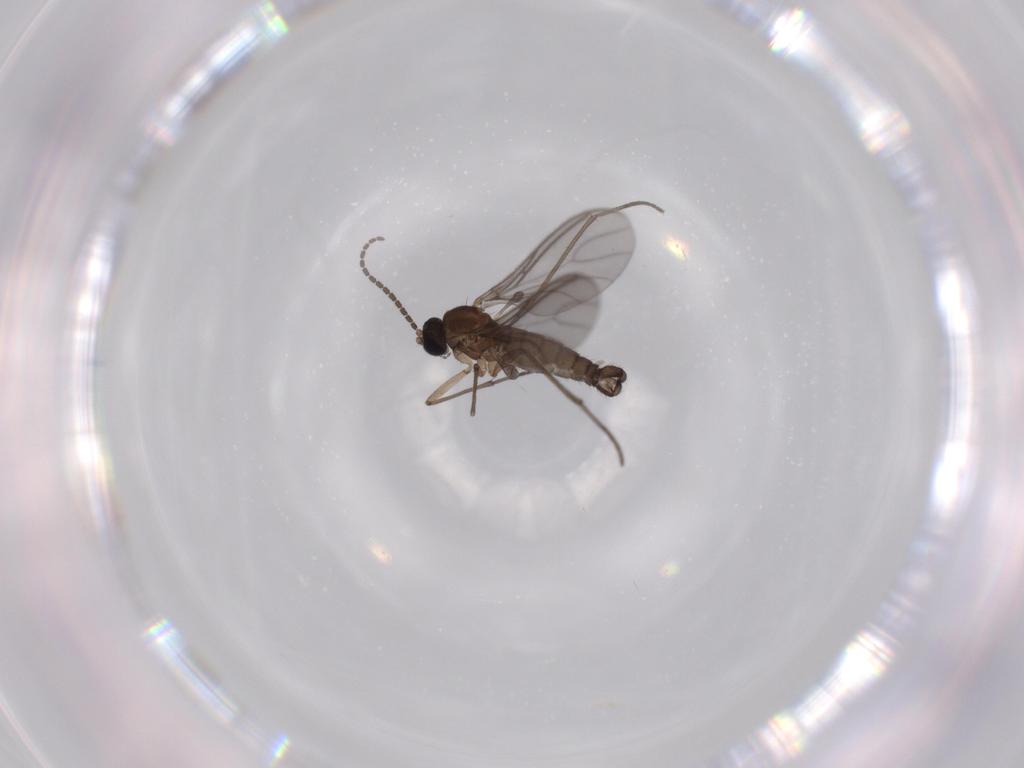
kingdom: Animalia
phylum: Arthropoda
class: Insecta
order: Diptera
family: Sciaridae
